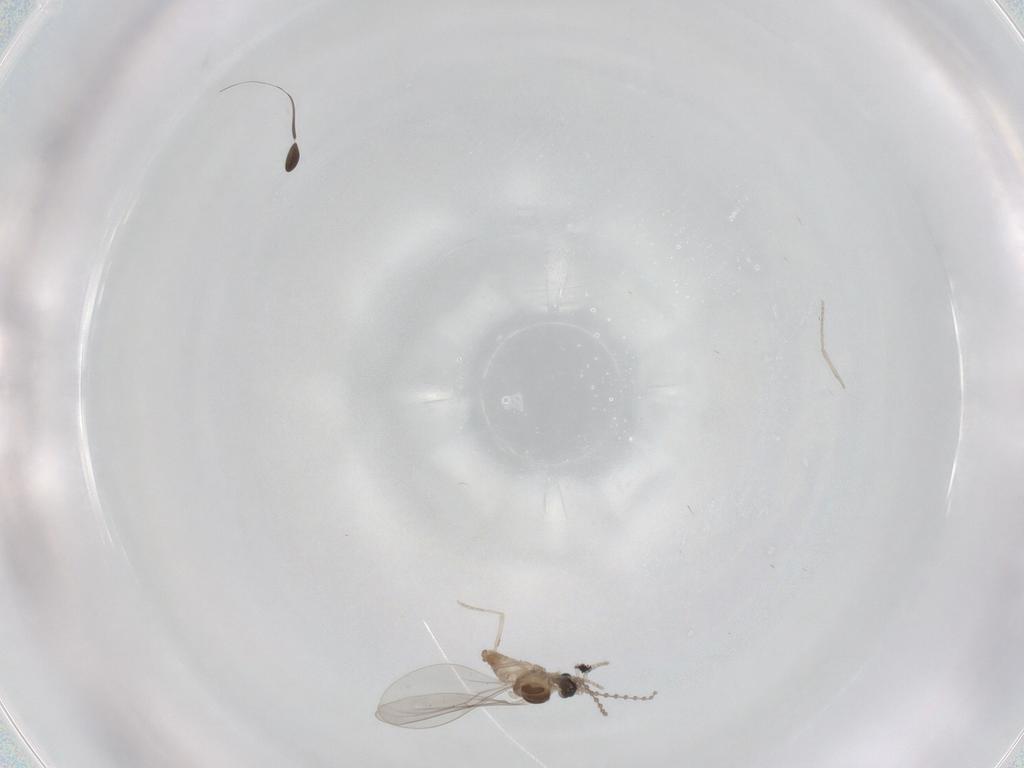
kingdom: Animalia
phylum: Arthropoda
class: Insecta
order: Diptera
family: Cecidomyiidae
